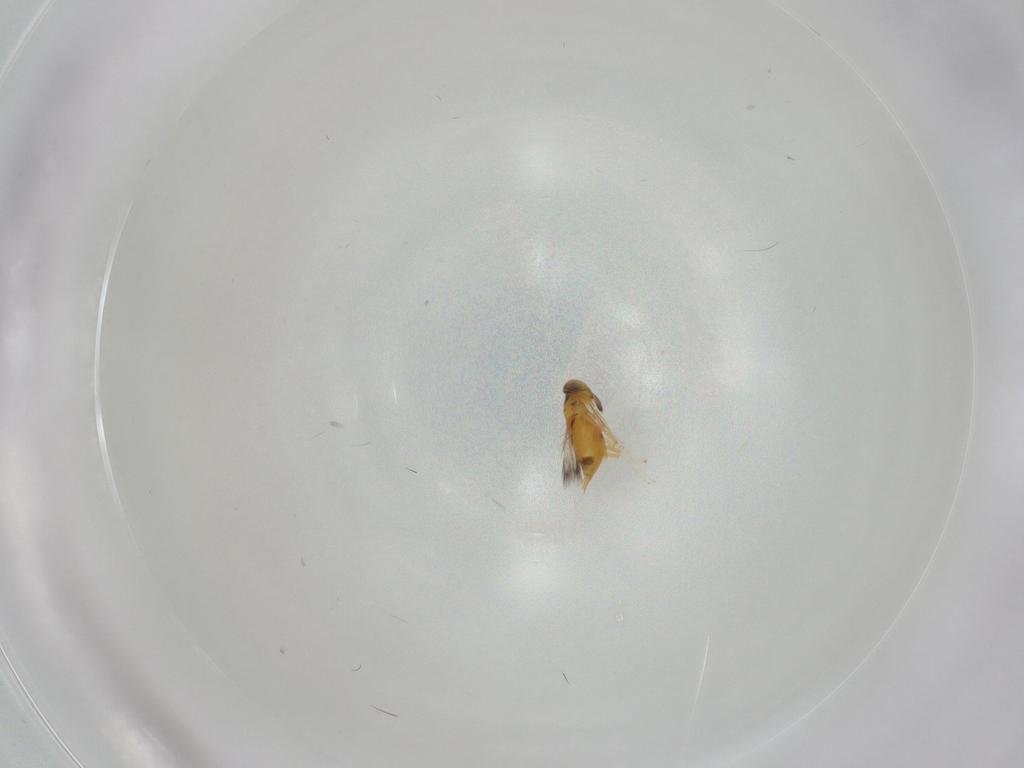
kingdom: Animalia
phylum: Arthropoda
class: Insecta
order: Hymenoptera
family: Signiphoridae
